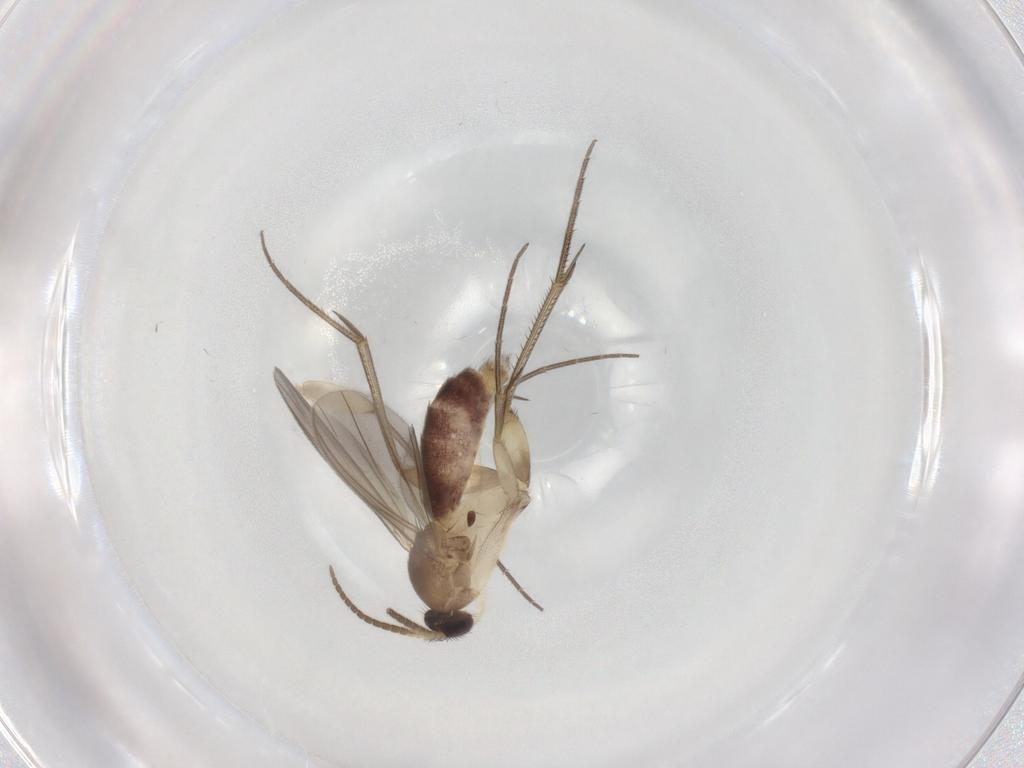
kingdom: Animalia
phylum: Arthropoda
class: Insecta
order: Diptera
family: Mycetophilidae
